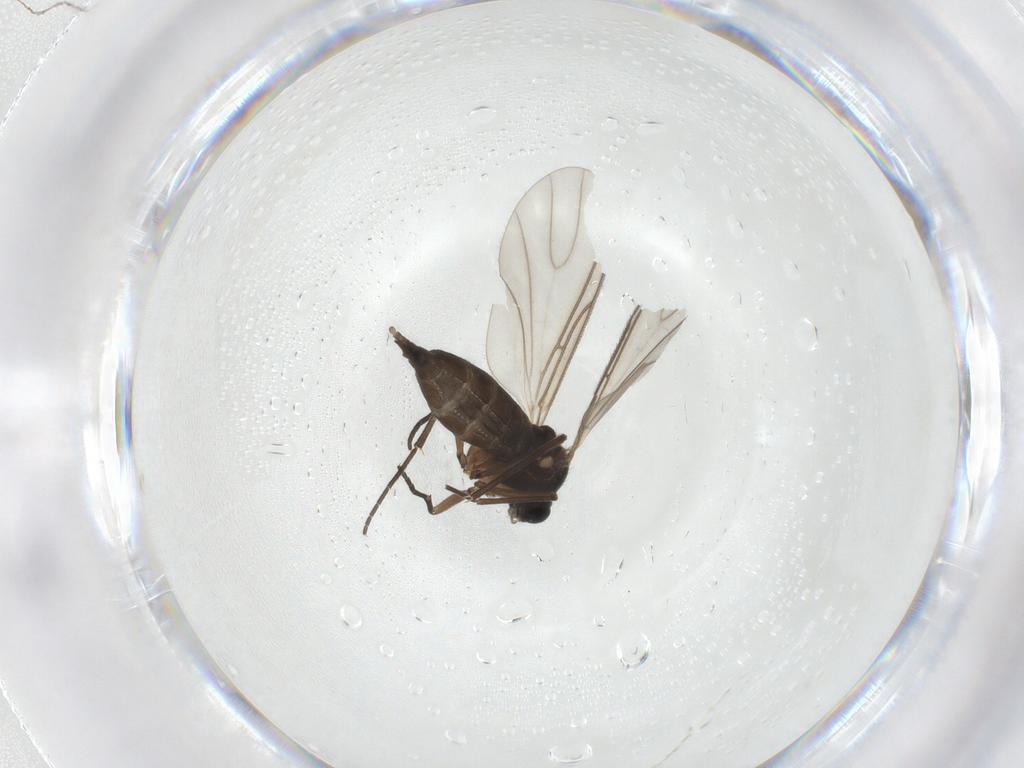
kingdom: Animalia
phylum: Arthropoda
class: Insecta
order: Diptera
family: Sciaridae
